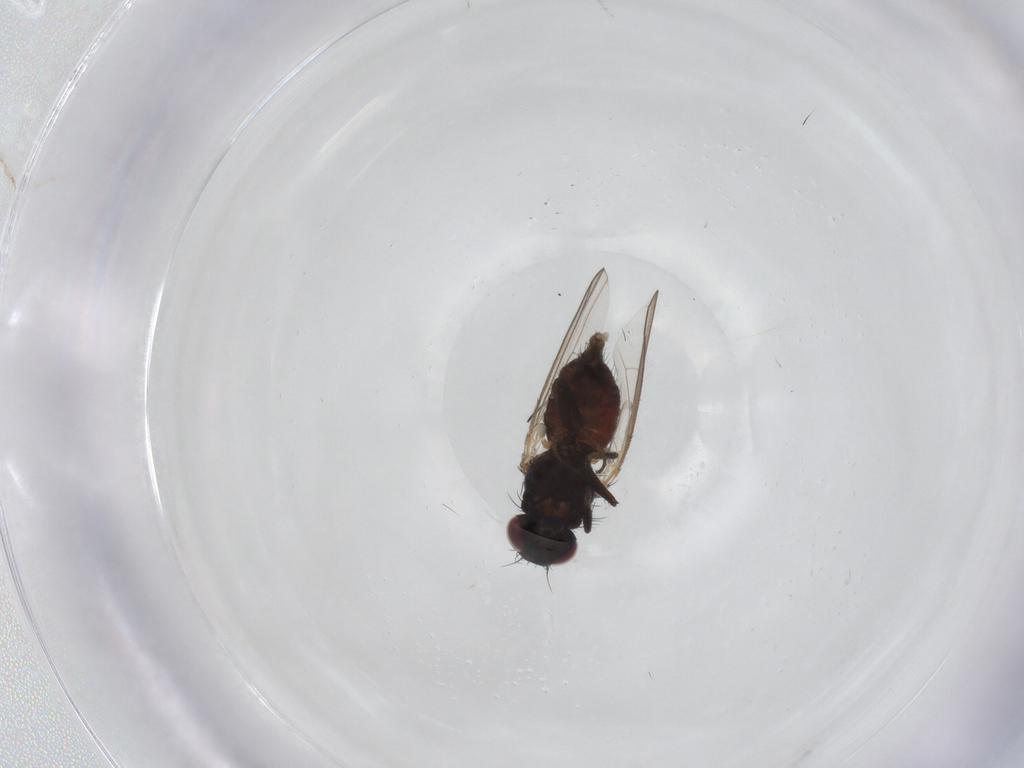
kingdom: Animalia
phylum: Arthropoda
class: Insecta
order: Diptera
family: Carnidae
